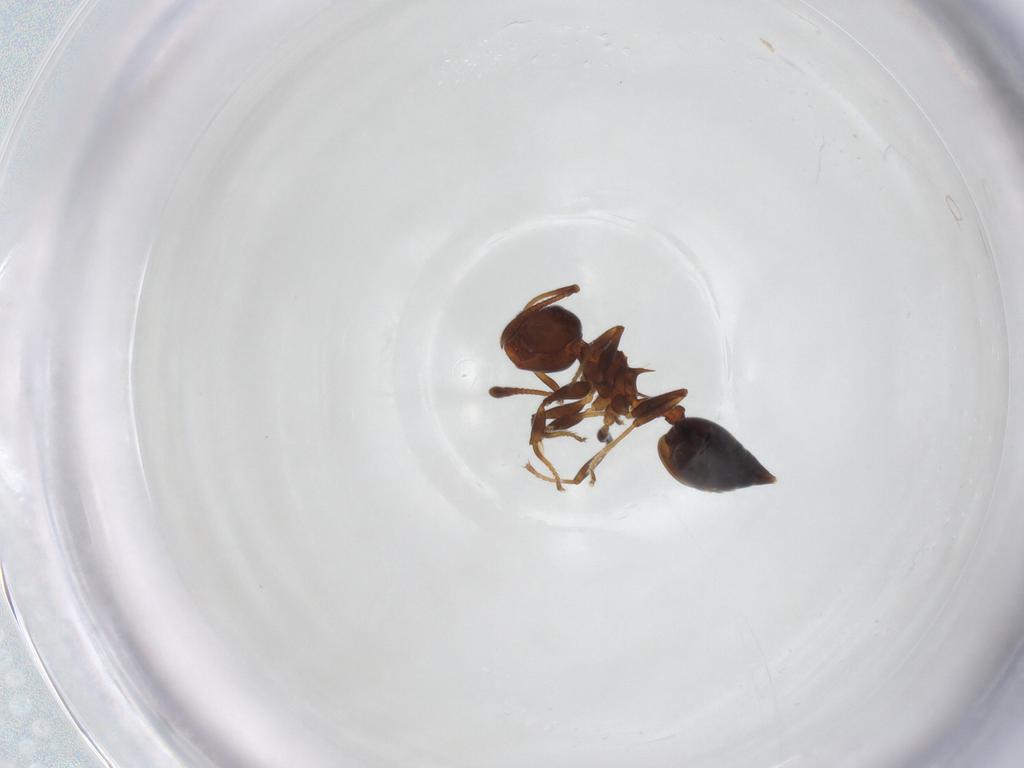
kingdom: Animalia
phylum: Arthropoda
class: Insecta
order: Hymenoptera
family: Formicidae
